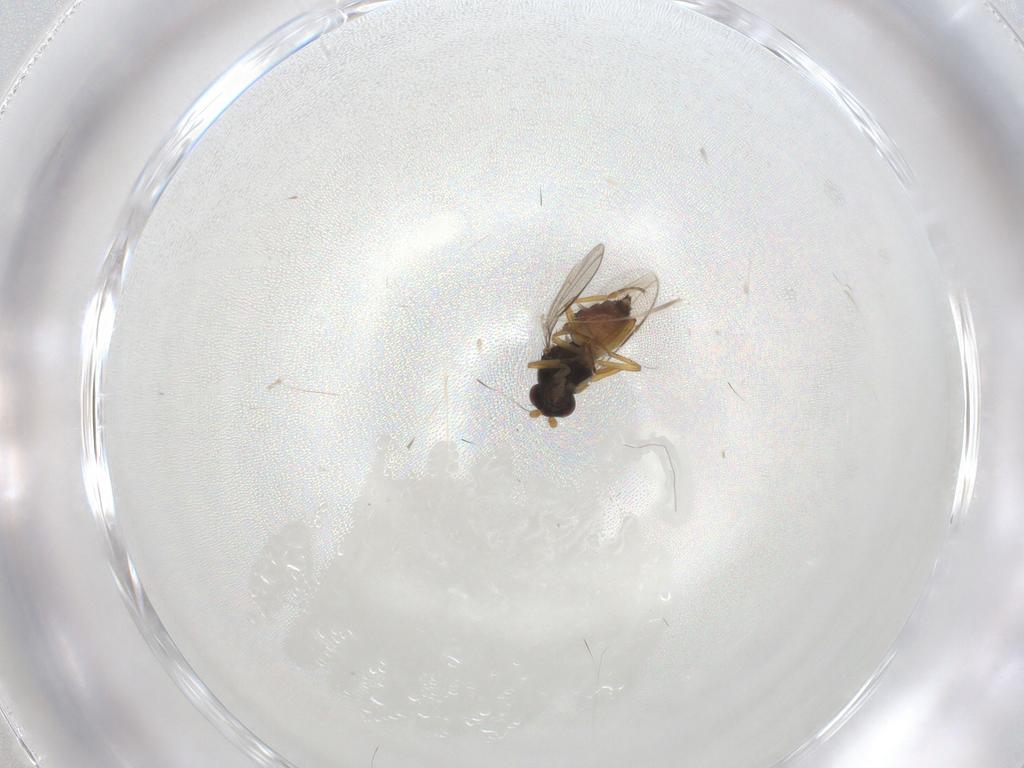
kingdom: Animalia
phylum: Arthropoda
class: Insecta
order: Diptera
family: Sphaeroceridae
